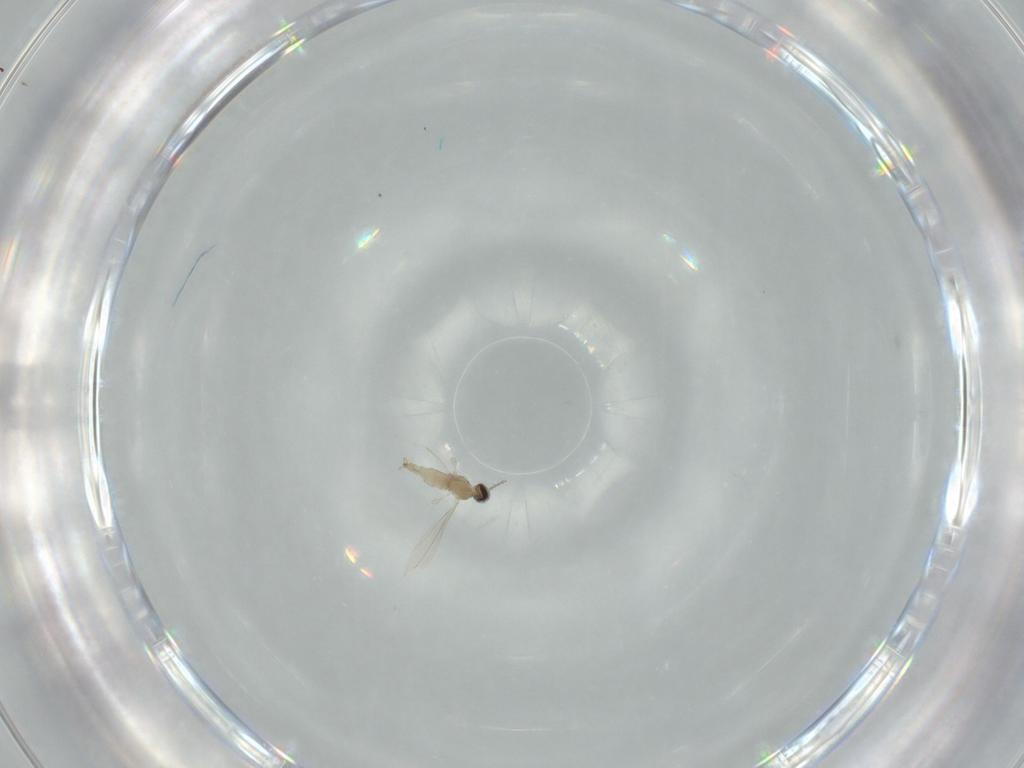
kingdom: Animalia
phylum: Arthropoda
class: Insecta
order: Diptera
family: Cecidomyiidae
